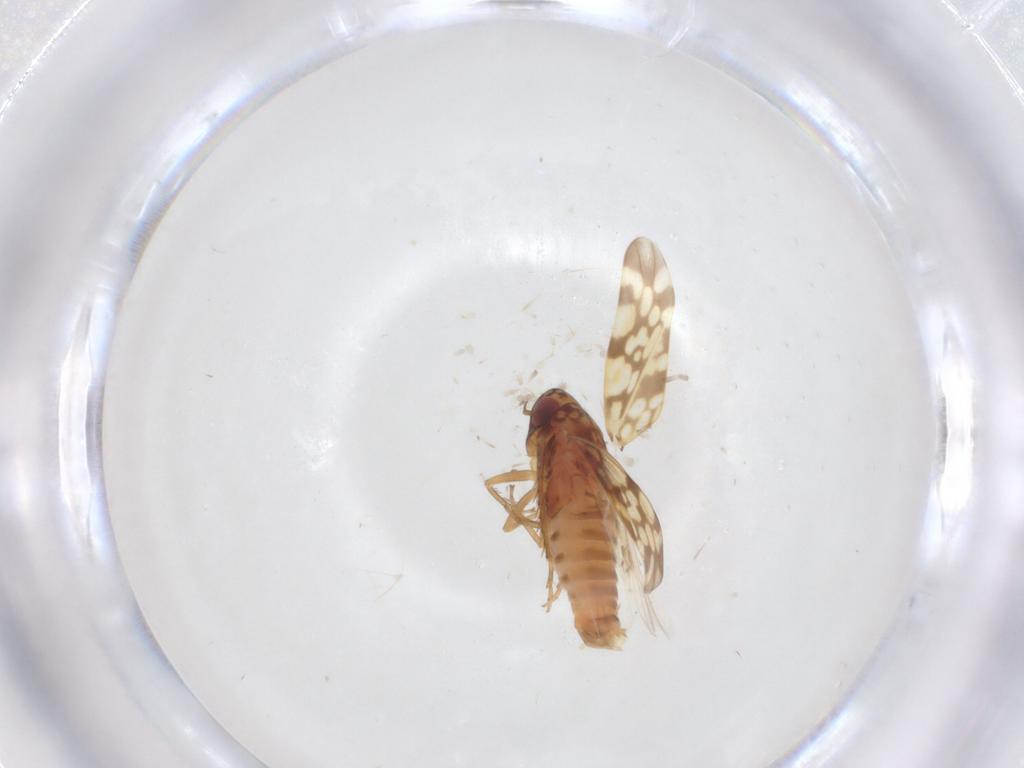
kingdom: Animalia
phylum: Arthropoda
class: Insecta
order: Hemiptera
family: Cicadellidae
